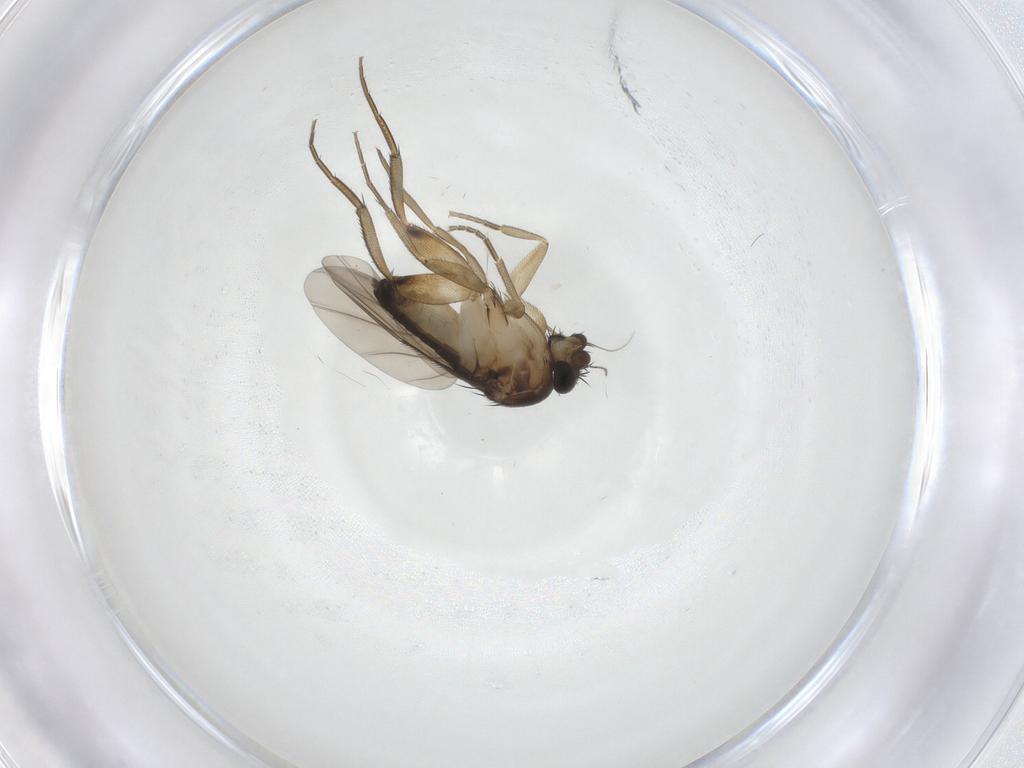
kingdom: Animalia
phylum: Arthropoda
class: Insecta
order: Diptera
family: Phoridae
